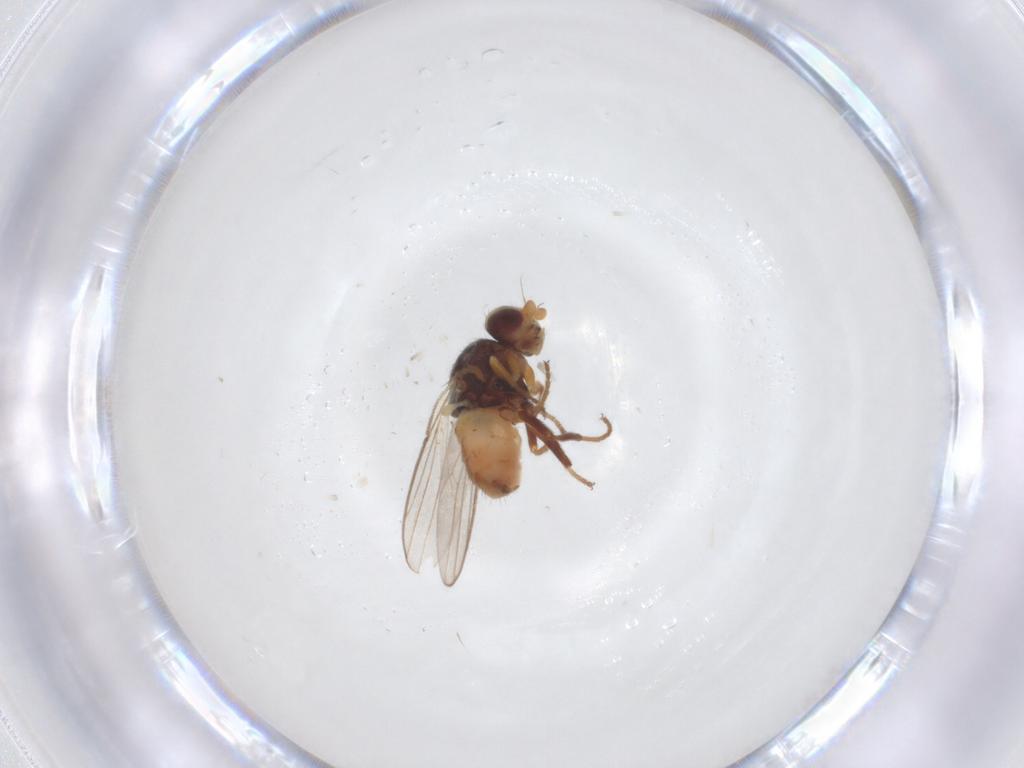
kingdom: Animalia
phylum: Arthropoda
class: Insecta
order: Diptera
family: Chloropidae
